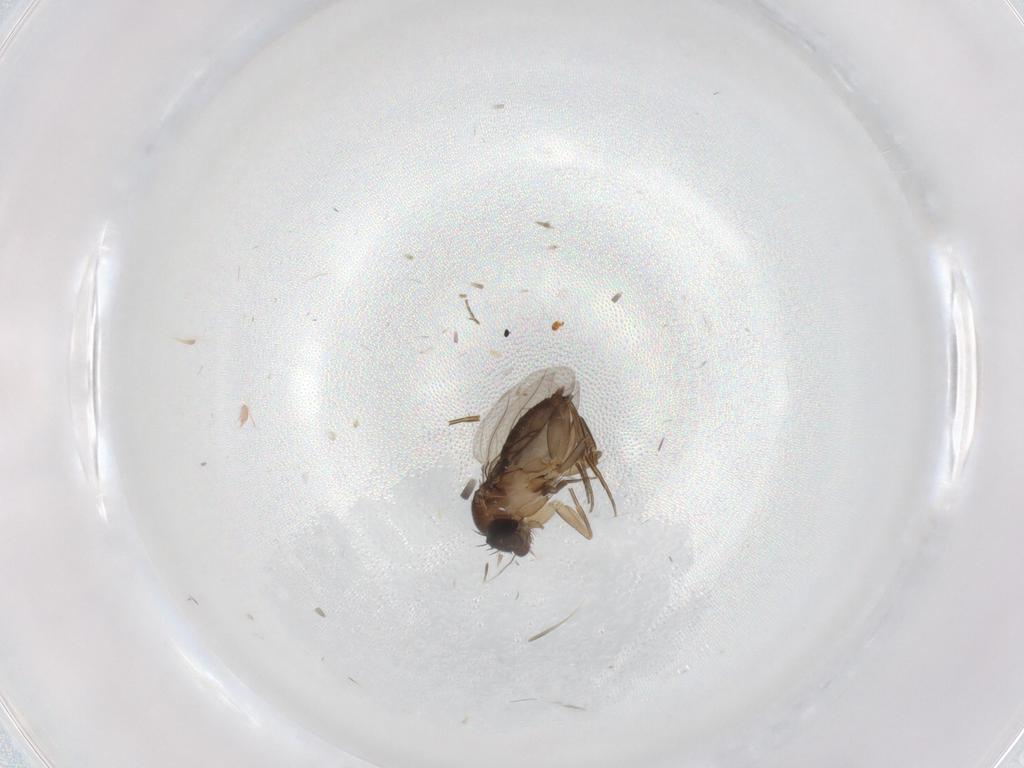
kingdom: Animalia
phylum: Arthropoda
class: Insecta
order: Diptera
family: Phoridae
